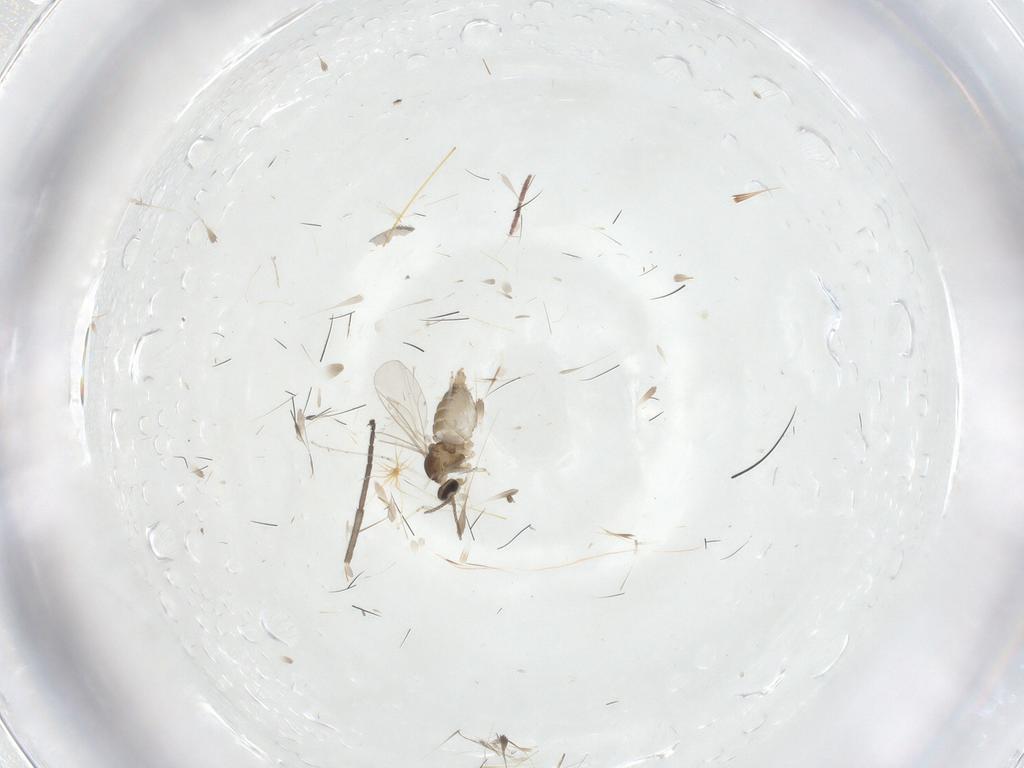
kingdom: Animalia
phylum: Arthropoda
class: Insecta
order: Diptera
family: Cecidomyiidae
